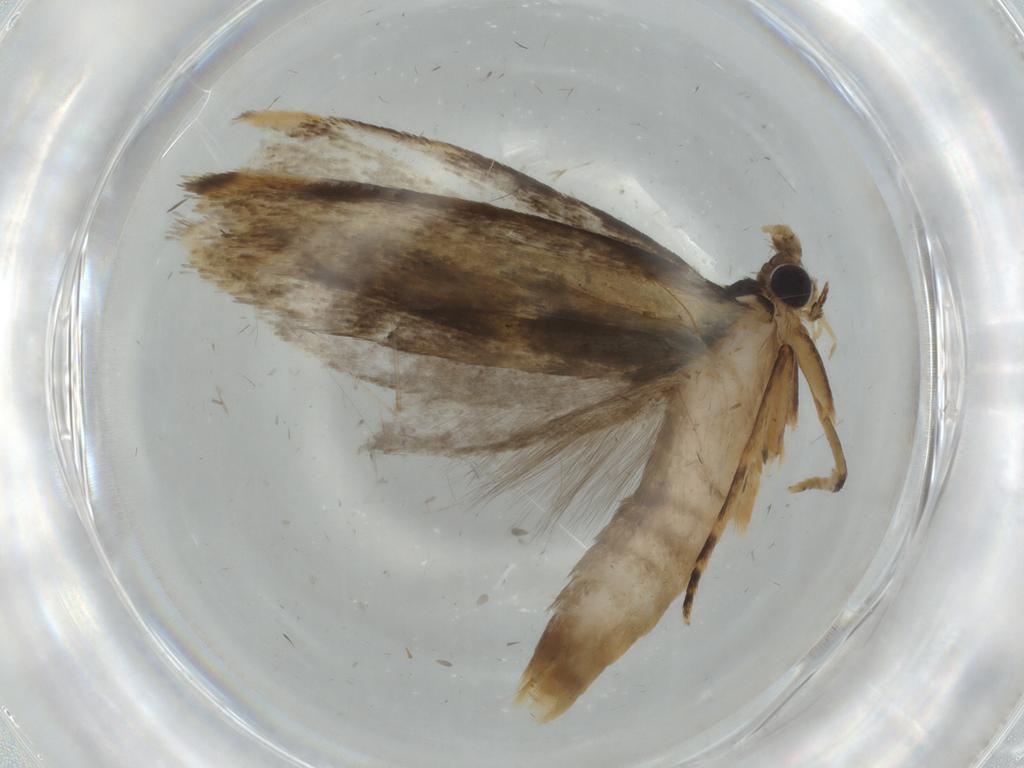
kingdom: Animalia
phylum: Arthropoda
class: Insecta
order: Lepidoptera
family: Tineidae
